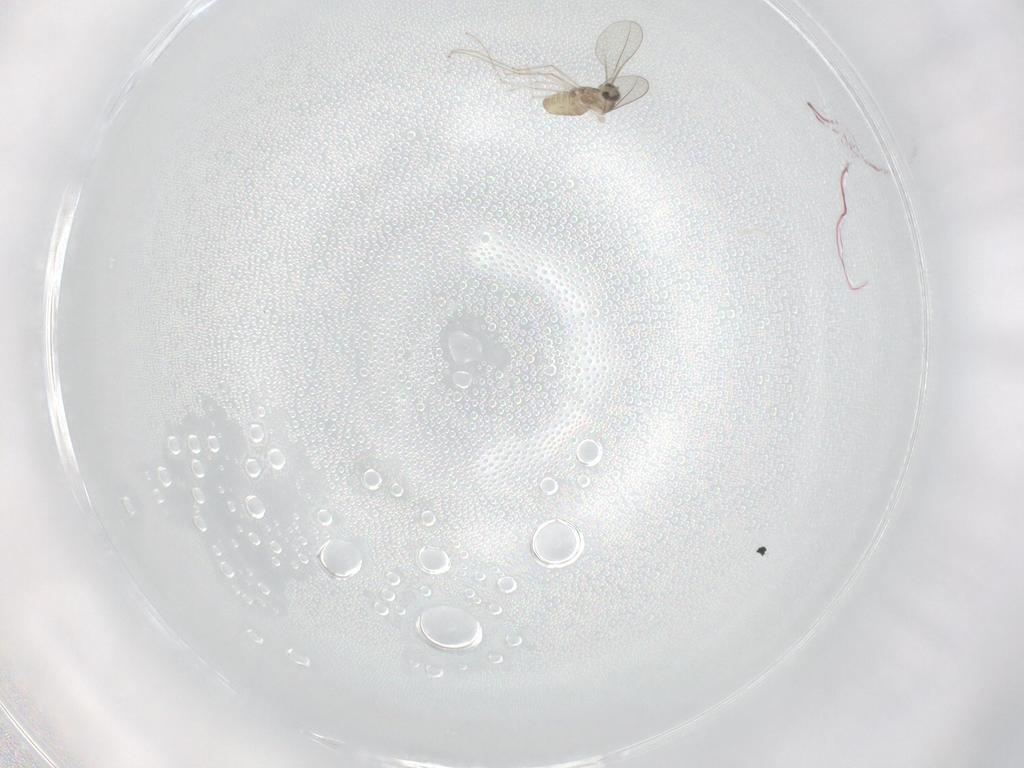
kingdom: Animalia
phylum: Arthropoda
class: Insecta
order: Diptera
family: Cecidomyiidae
